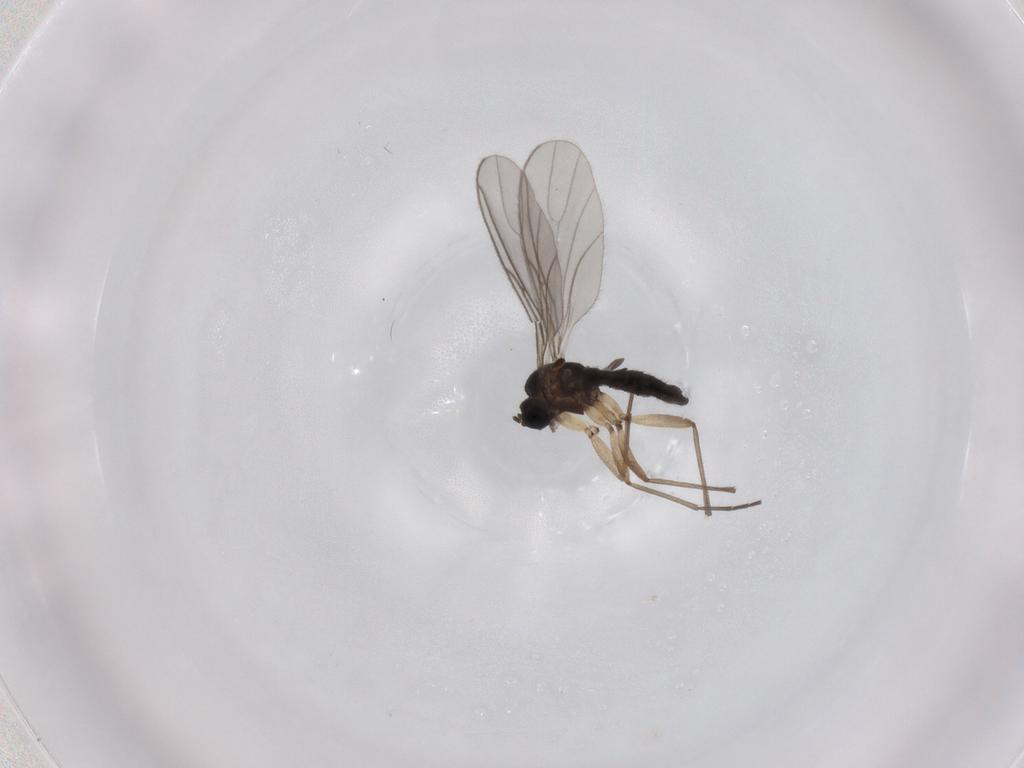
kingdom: Animalia
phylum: Arthropoda
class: Insecta
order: Diptera
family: Sciaridae
